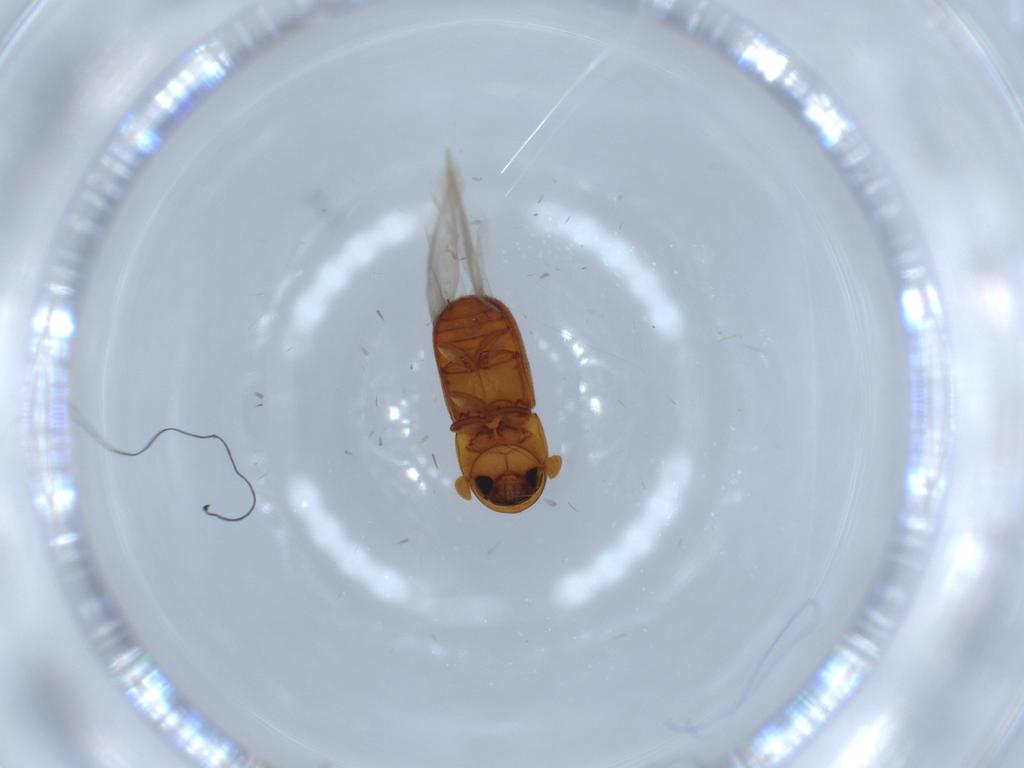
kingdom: Animalia
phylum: Arthropoda
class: Insecta
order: Coleoptera
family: Curculionidae
